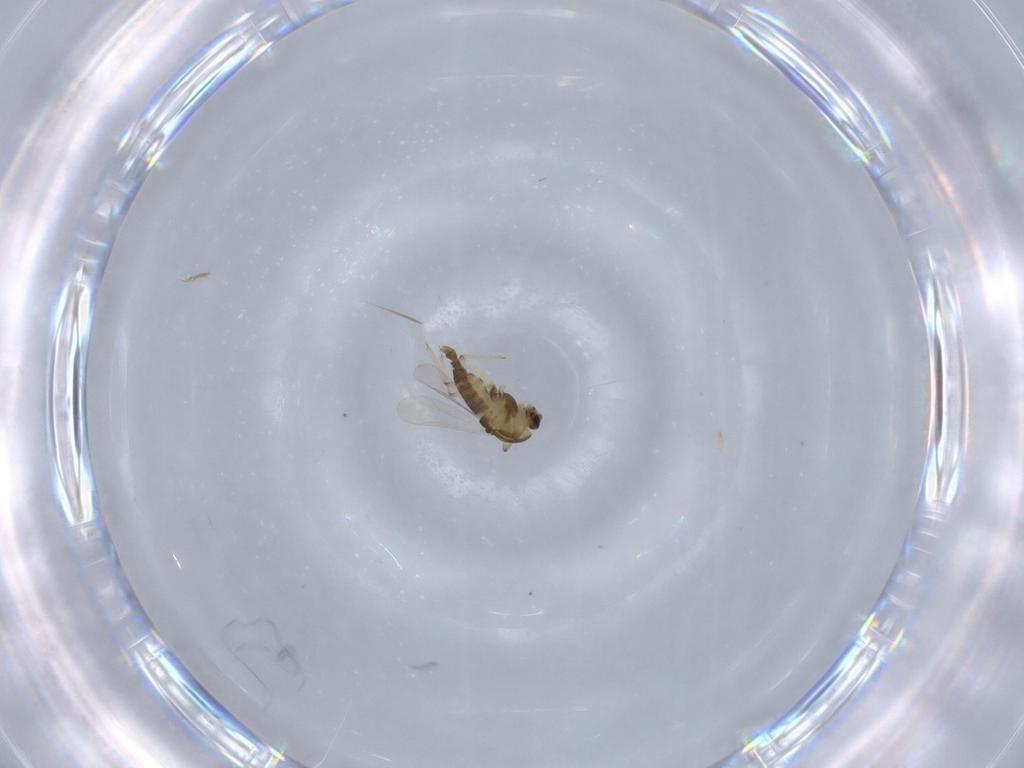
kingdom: Animalia
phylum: Arthropoda
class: Insecta
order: Diptera
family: Chironomidae
